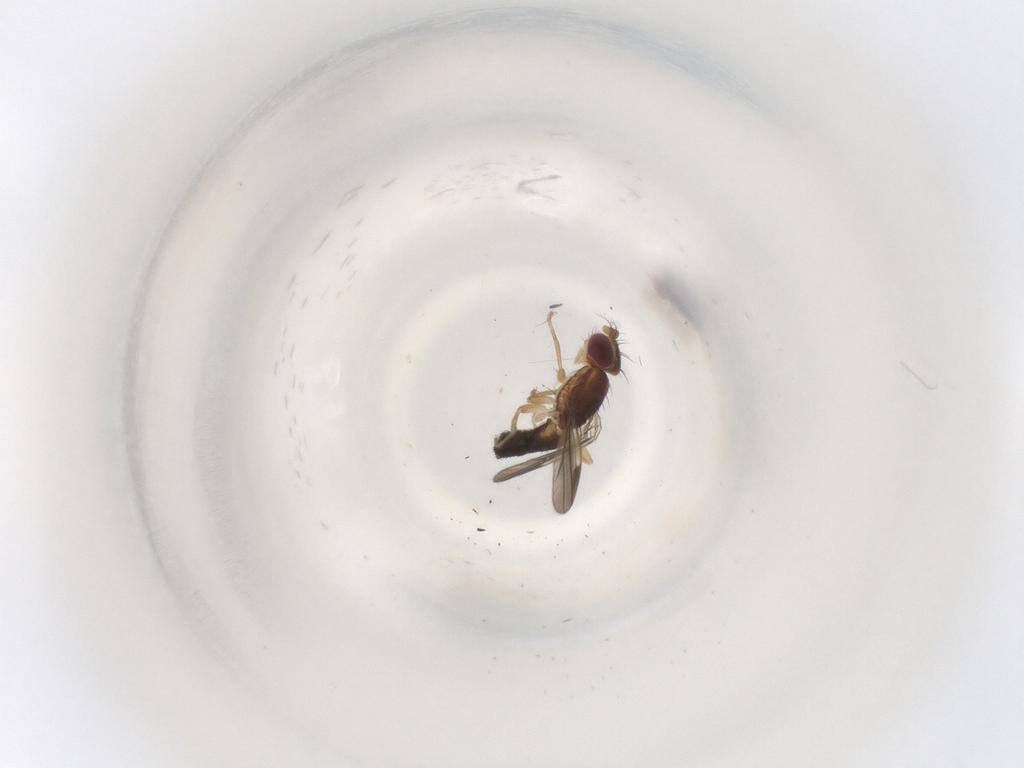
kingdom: Animalia
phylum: Arthropoda
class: Insecta
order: Diptera
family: Anthomyzidae
